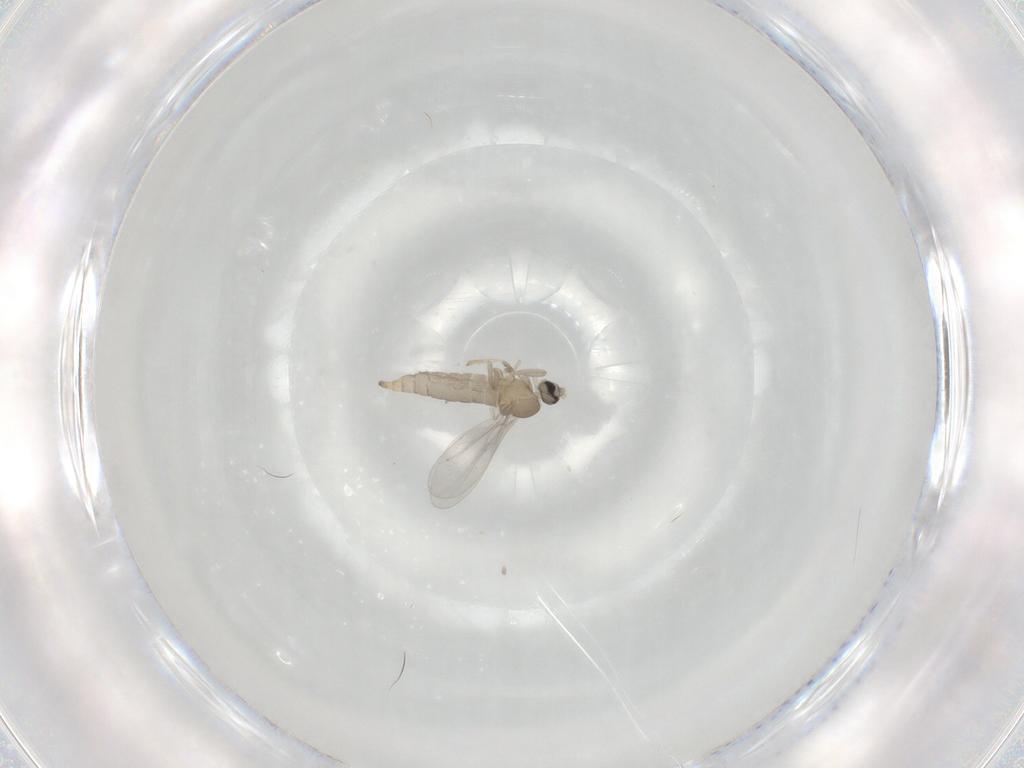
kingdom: Animalia
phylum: Arthropoda
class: Insecta
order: Diptera
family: Cecidomyiidae
